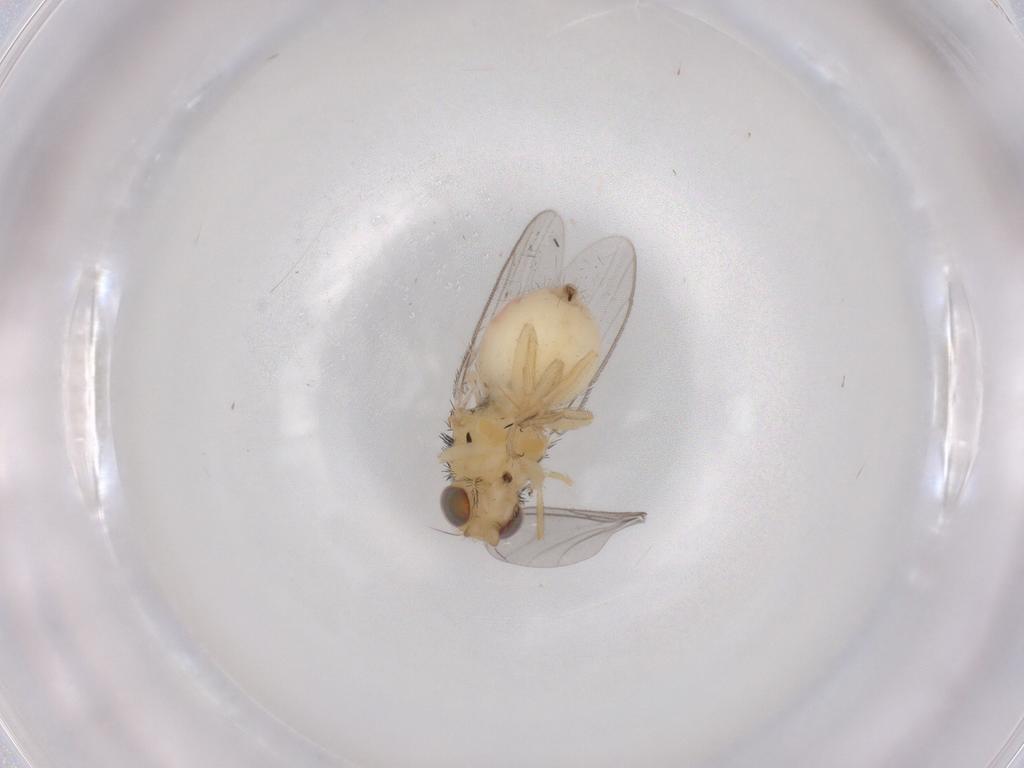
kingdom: Animalia
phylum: Arthropoda
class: Insecta
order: Diptera
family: Chloropidae
